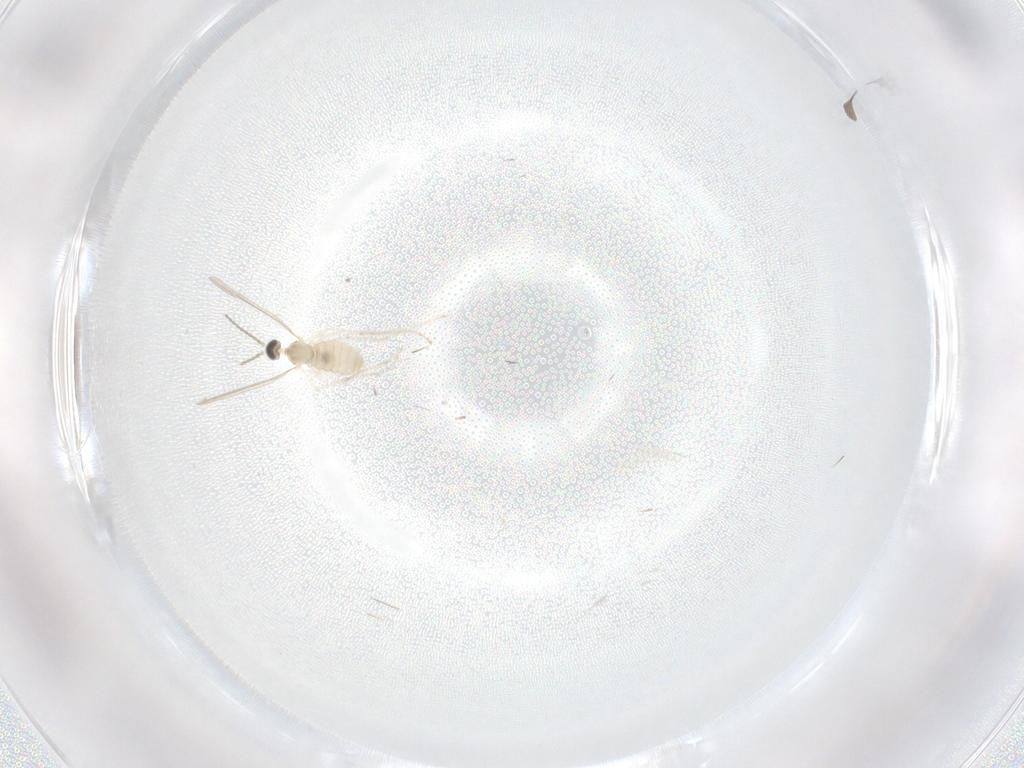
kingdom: Animalia
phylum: Arthropoda
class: Insecta
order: Diptera
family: Cecidomyiidae
